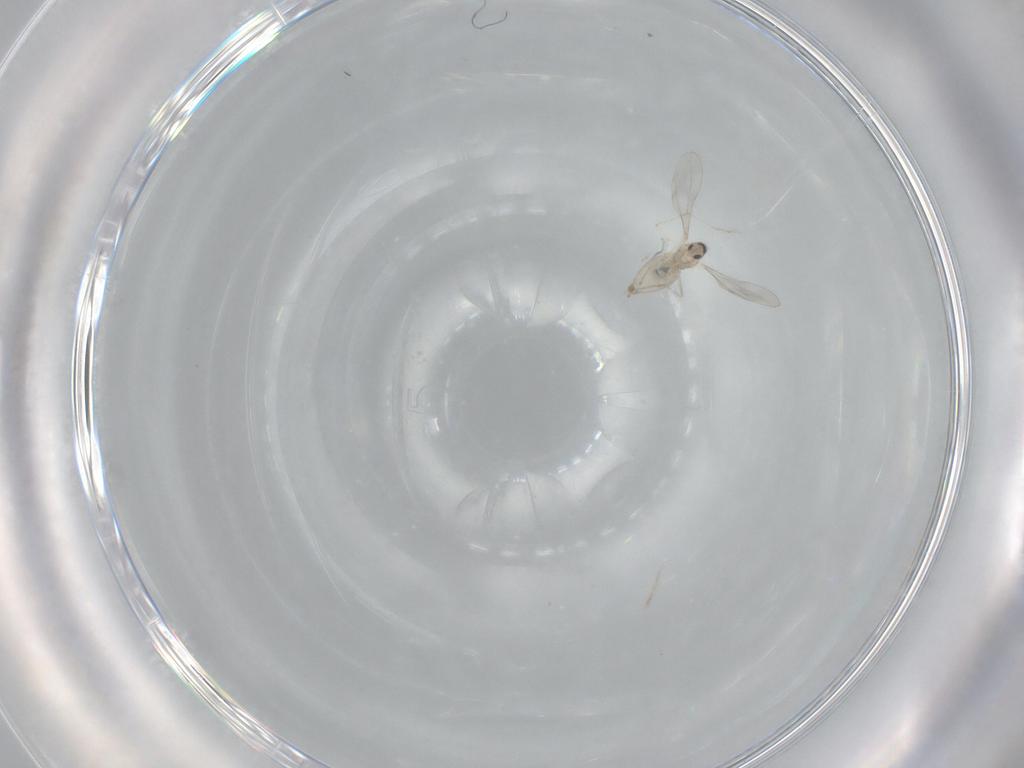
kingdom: Animalia
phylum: Arthropoda
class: Insecta
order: Diptera
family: Cecidomyiidae
